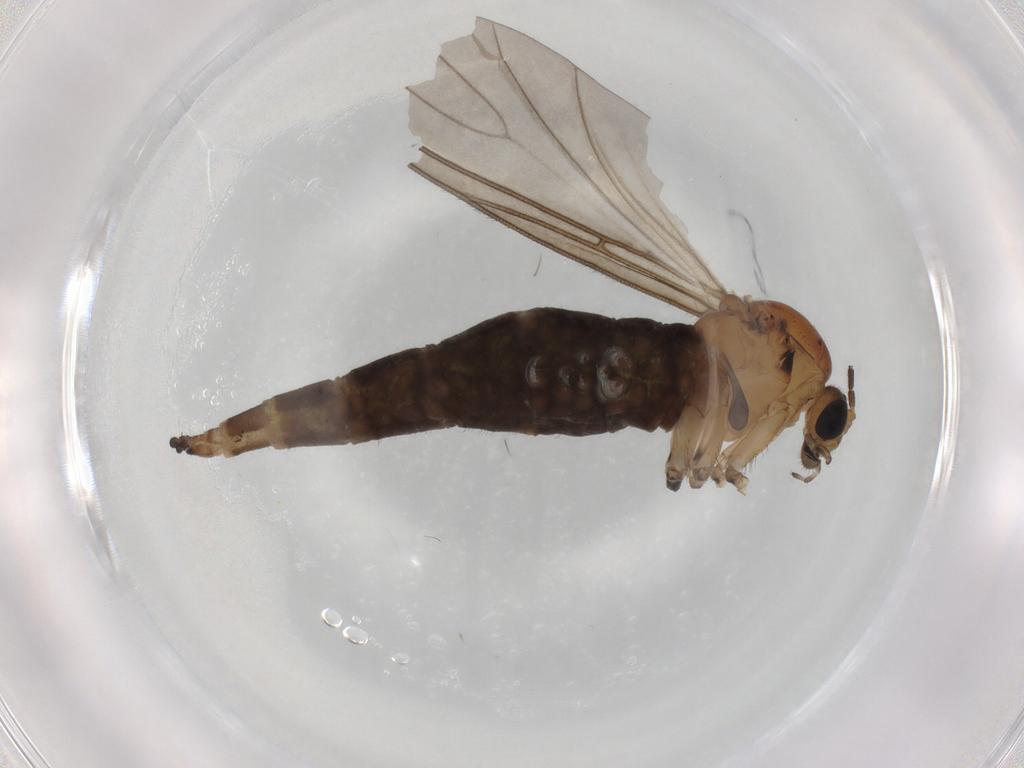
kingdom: Animalia
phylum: Arthropoda
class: Insecta
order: Diptera
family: Sciaridae
